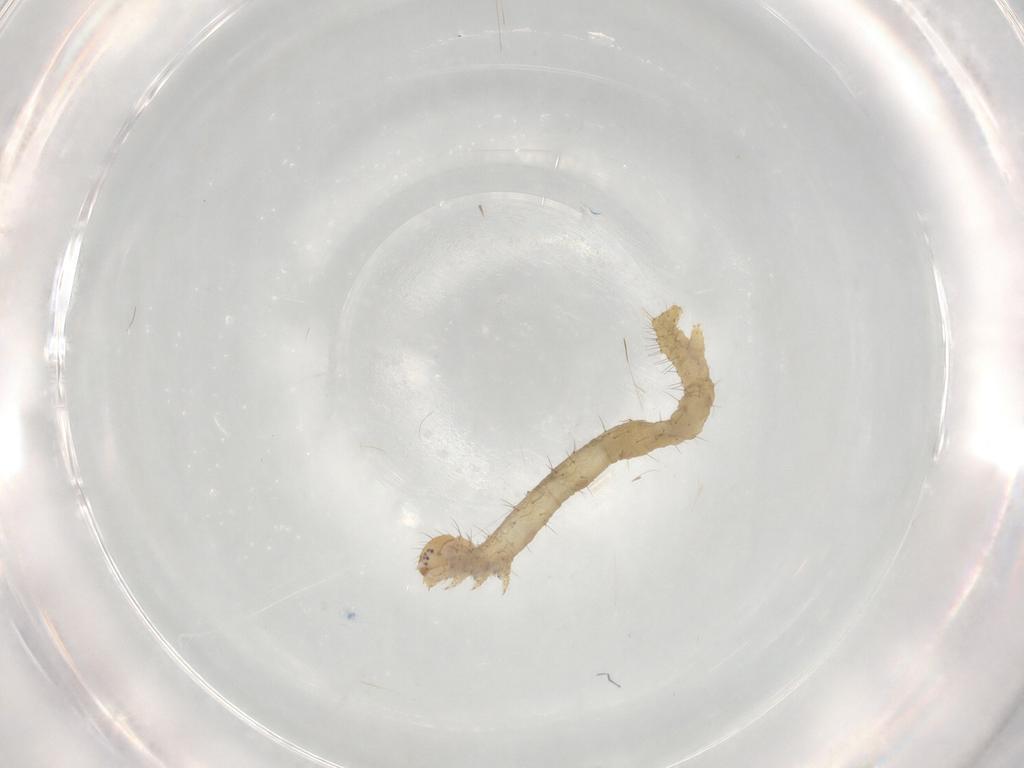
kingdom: Animalia
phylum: Arthropoda
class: Insecta
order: Lepidoptera
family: Geometridae
